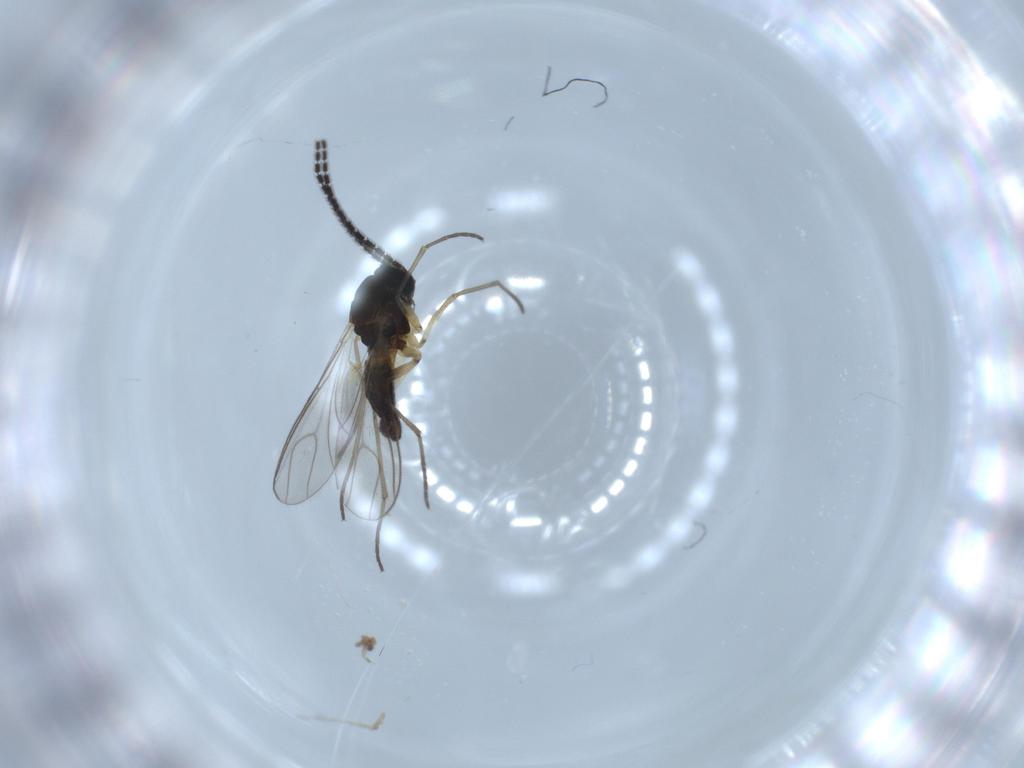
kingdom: Animalia
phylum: Arthropoda
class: Insecta
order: Diptera
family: Sciaridae
